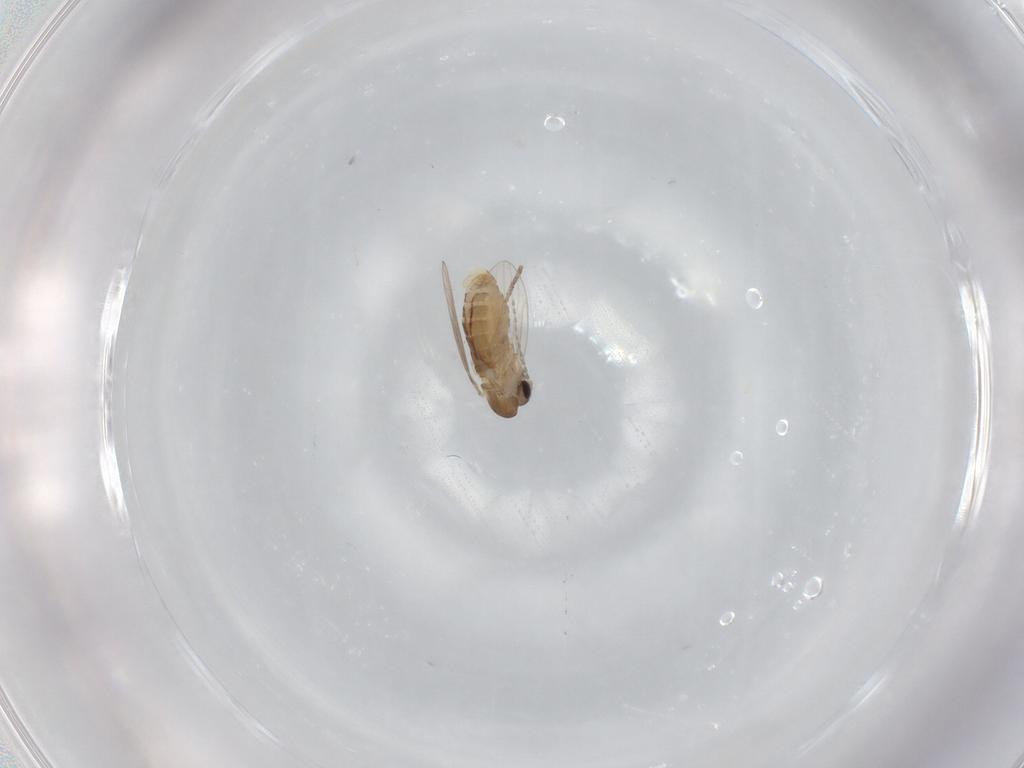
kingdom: Animalia
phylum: Arthropoda
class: Insecta
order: Diptera
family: Psychodidae
